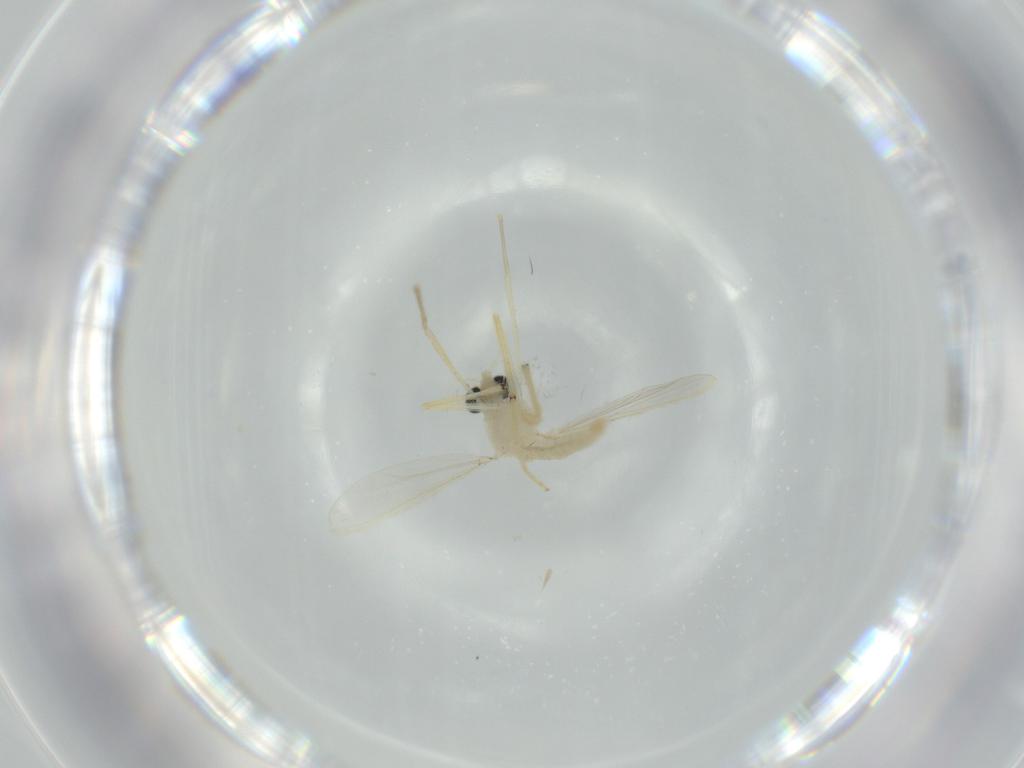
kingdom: Animalia
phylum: Arthropoda
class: Insecta
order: Diptera
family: Chironomidae
